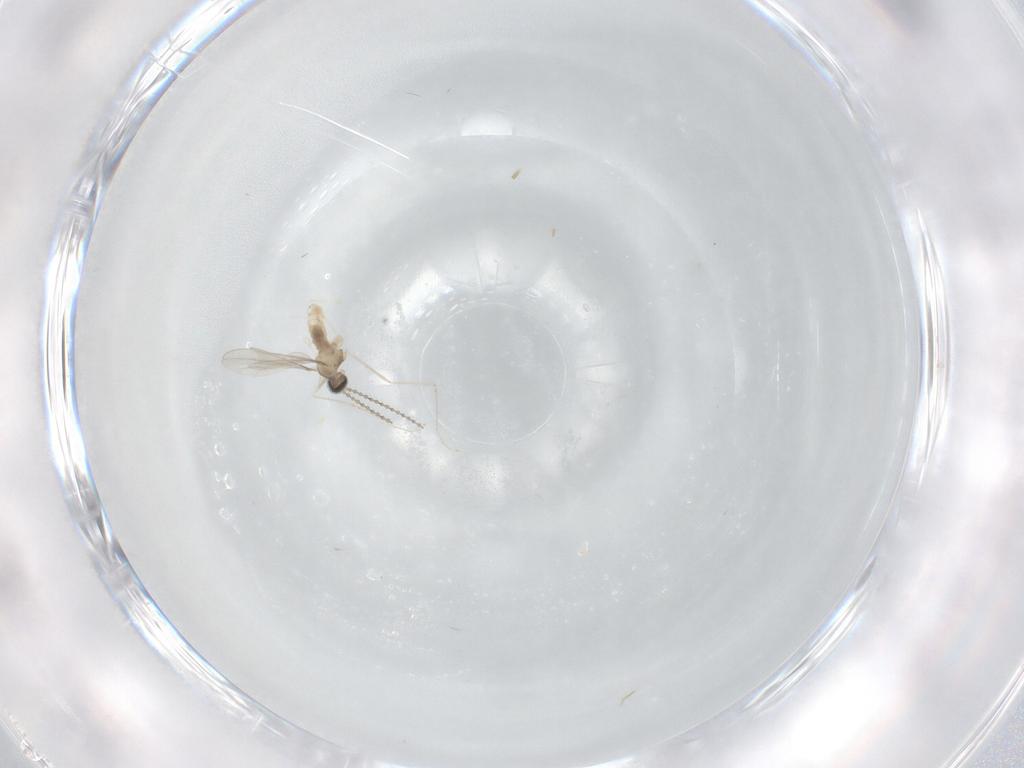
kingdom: Animalia
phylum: Arthropoda
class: Insecta
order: Diptera
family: Cecidomyiidae
